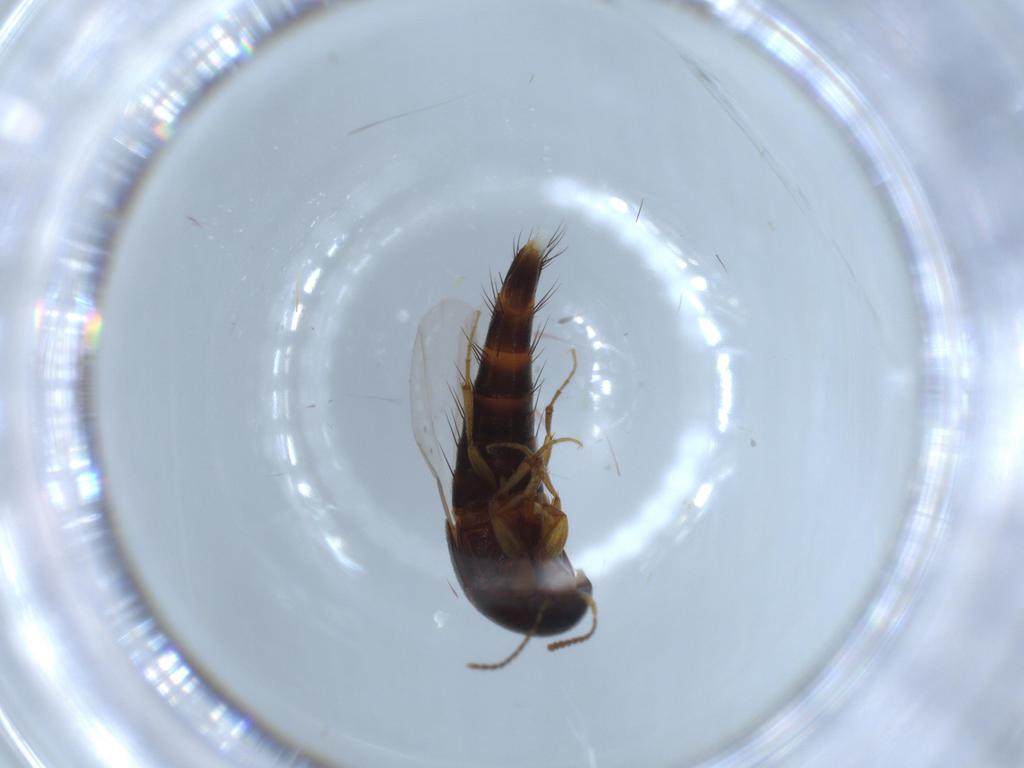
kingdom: Animalia
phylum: Arthropoda
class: Insecta
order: Coleoptera
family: Staphylinidae
